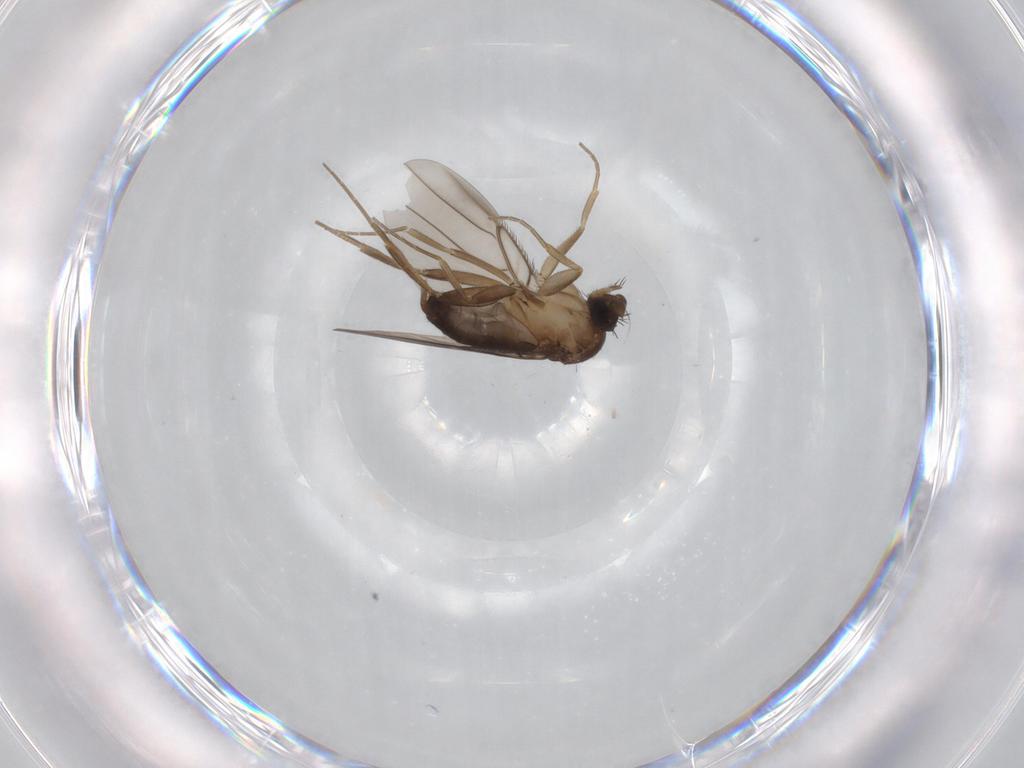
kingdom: Animalia
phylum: Arthropoda
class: Insecta
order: Diptera
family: Phoridae
